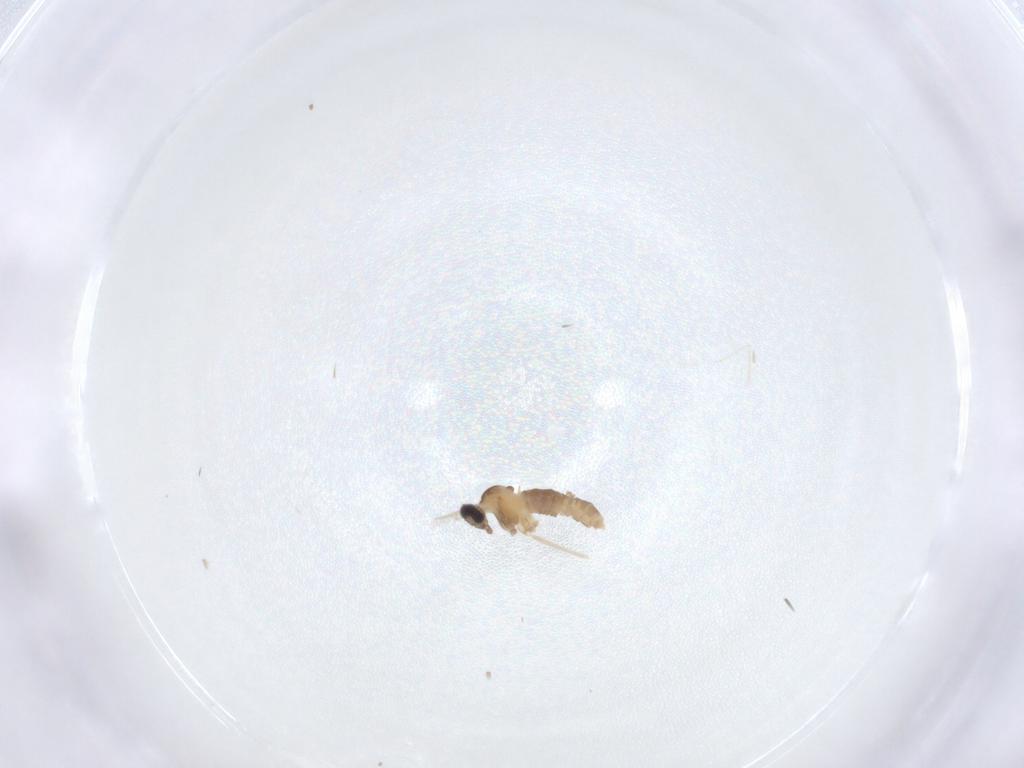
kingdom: Animalia
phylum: Arthropoda
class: Insecta
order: Diptera
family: Cecidomyiidae
